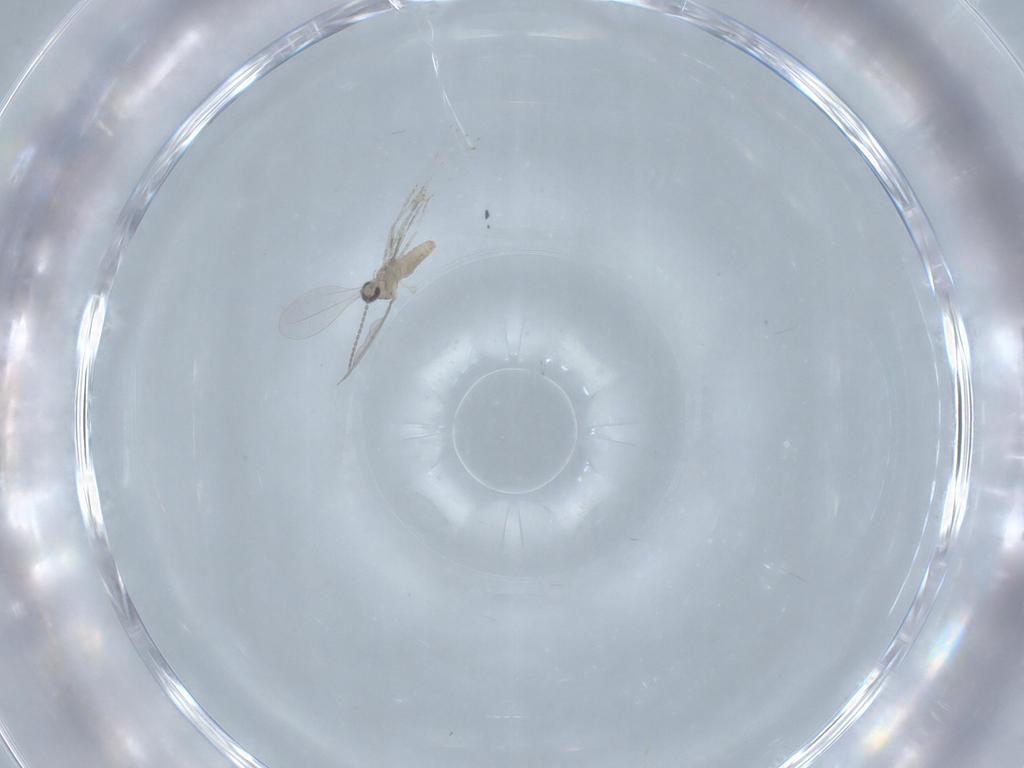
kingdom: Animalia
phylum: Arthropoda
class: Insecta
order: Diptera
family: Cecidomyiidae
